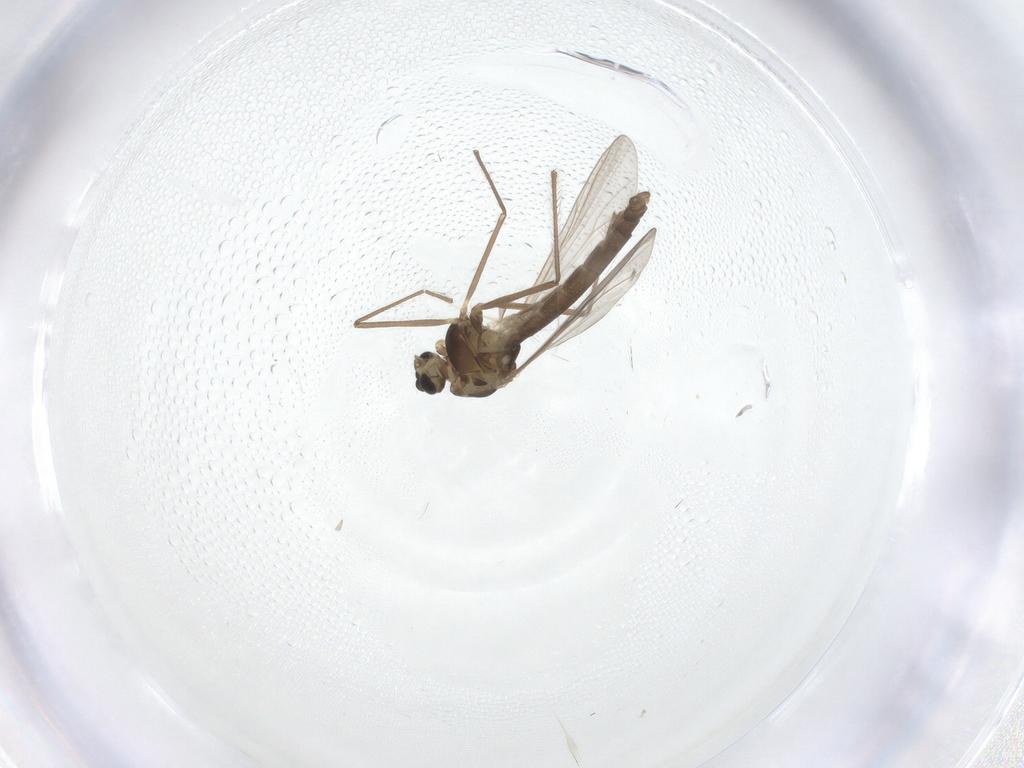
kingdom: Animalia
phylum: Arthropoda
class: Insecta
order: Diptera
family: Chironomidae
